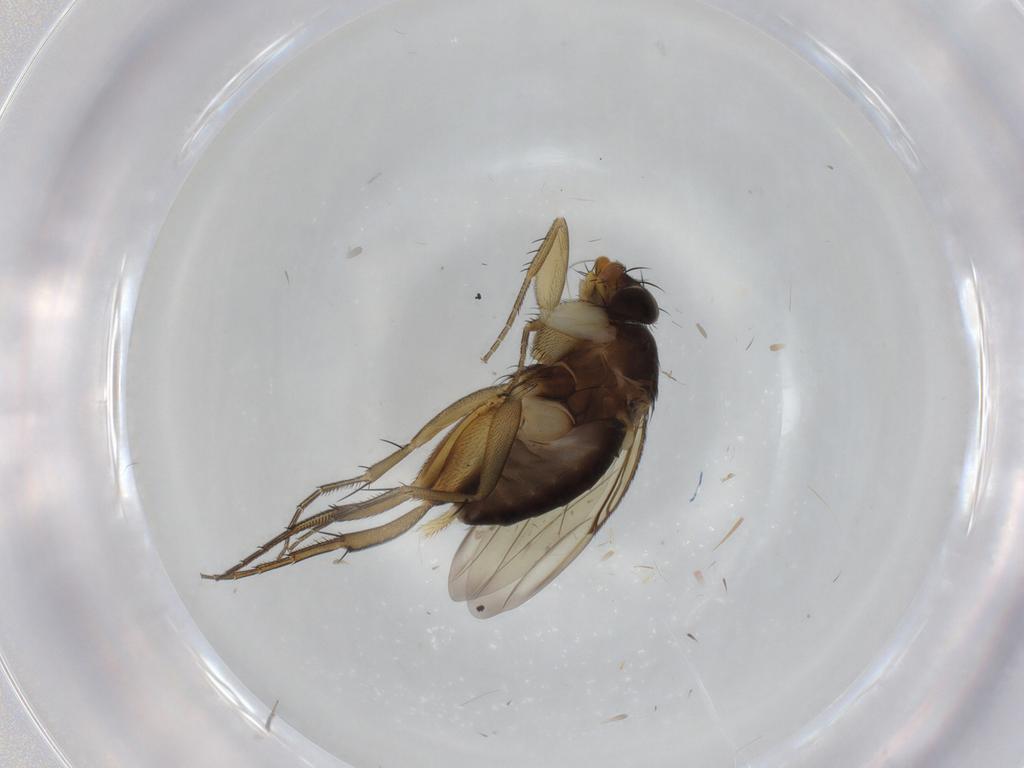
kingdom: Animalia
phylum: Arthropoda
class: Insecta
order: Diptera
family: Phoridae
